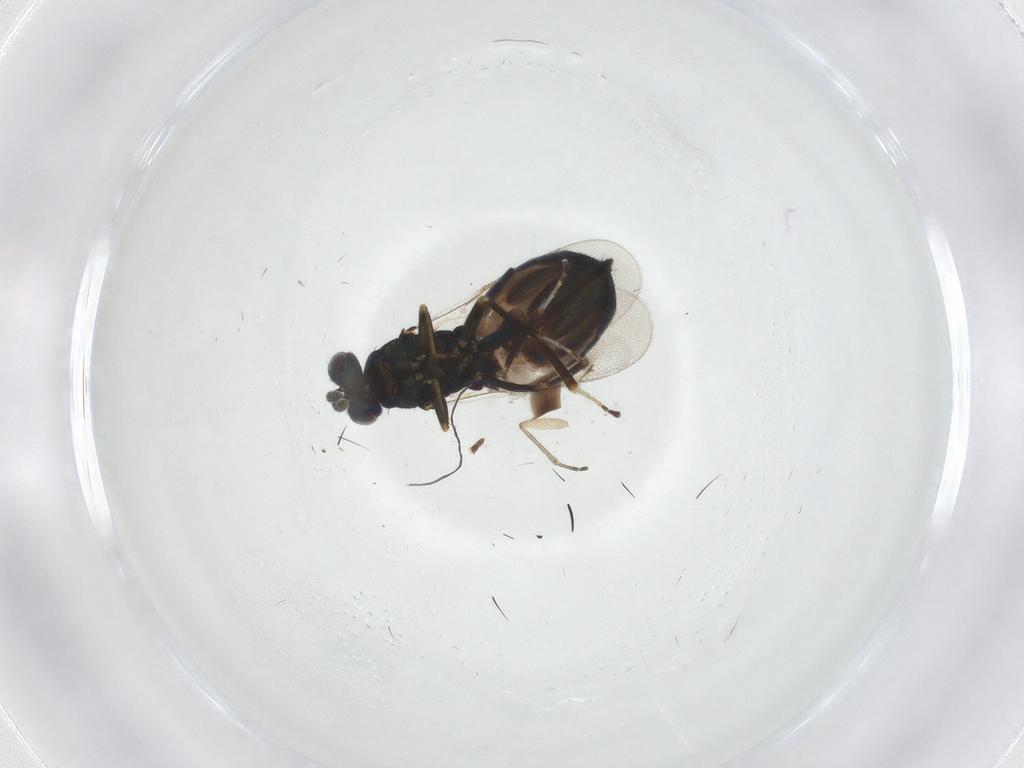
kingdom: Animalia
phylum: Arthropoda
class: Insecta
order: Hymenoptera
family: Eulophidae
